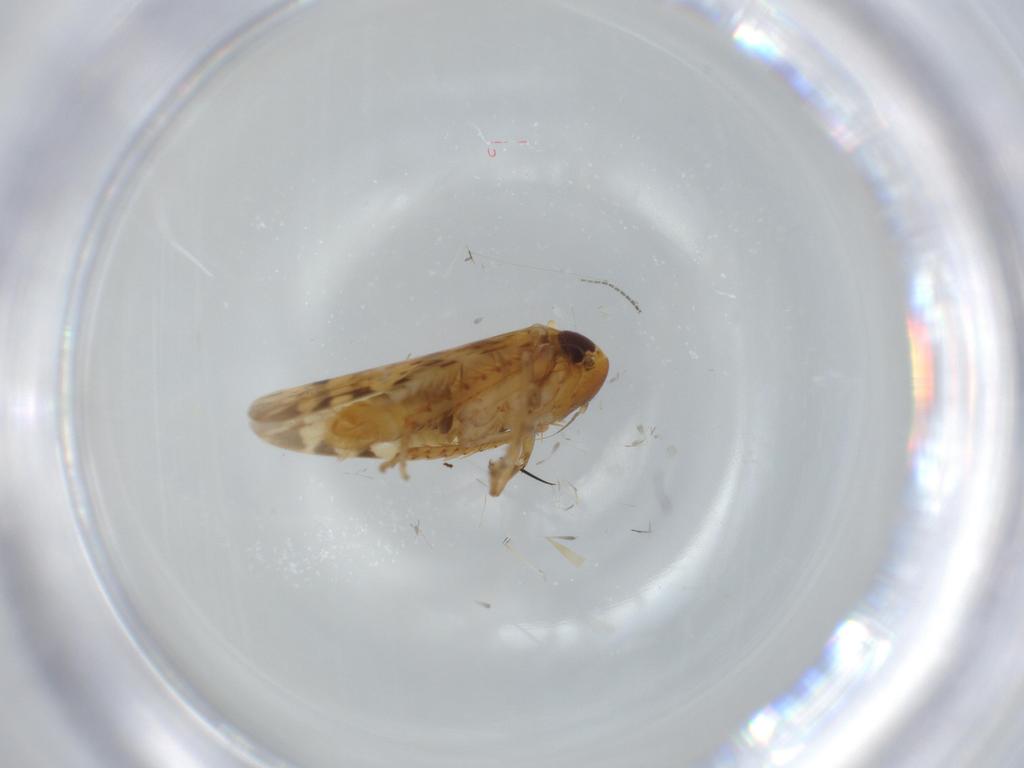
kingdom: Animalia
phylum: Arthropoda
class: Insecta
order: Hemiptera
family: Cicadellidae
